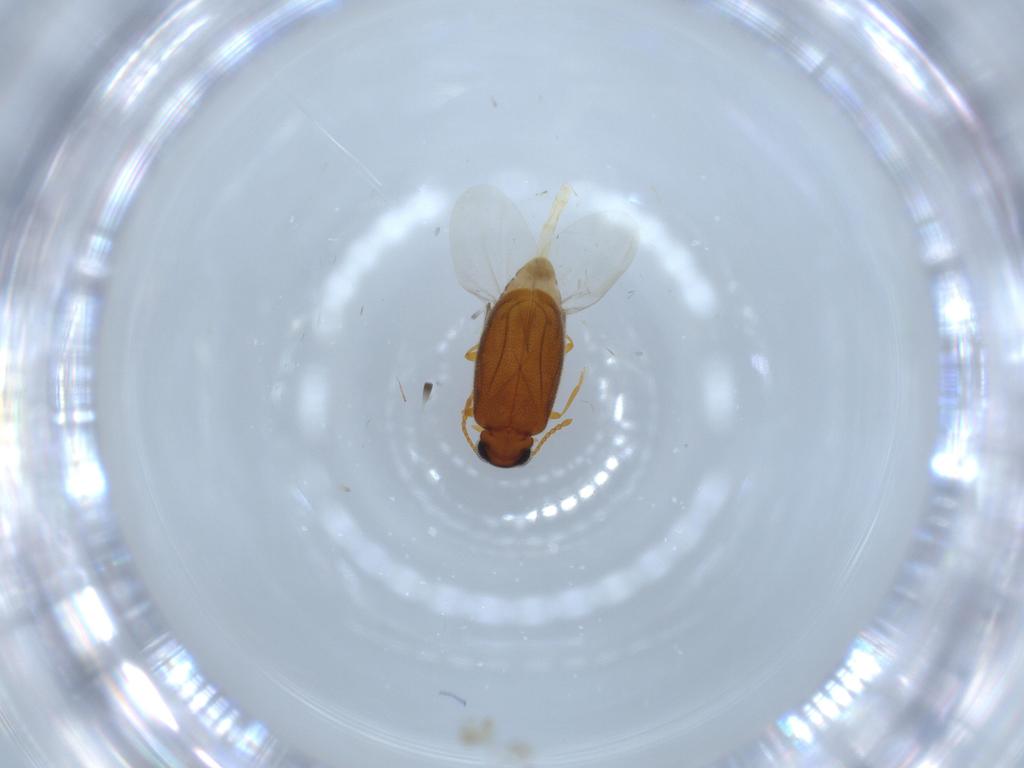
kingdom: Animalia
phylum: Arthropoda
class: Insecta
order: Coleoptera
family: Aderidae
